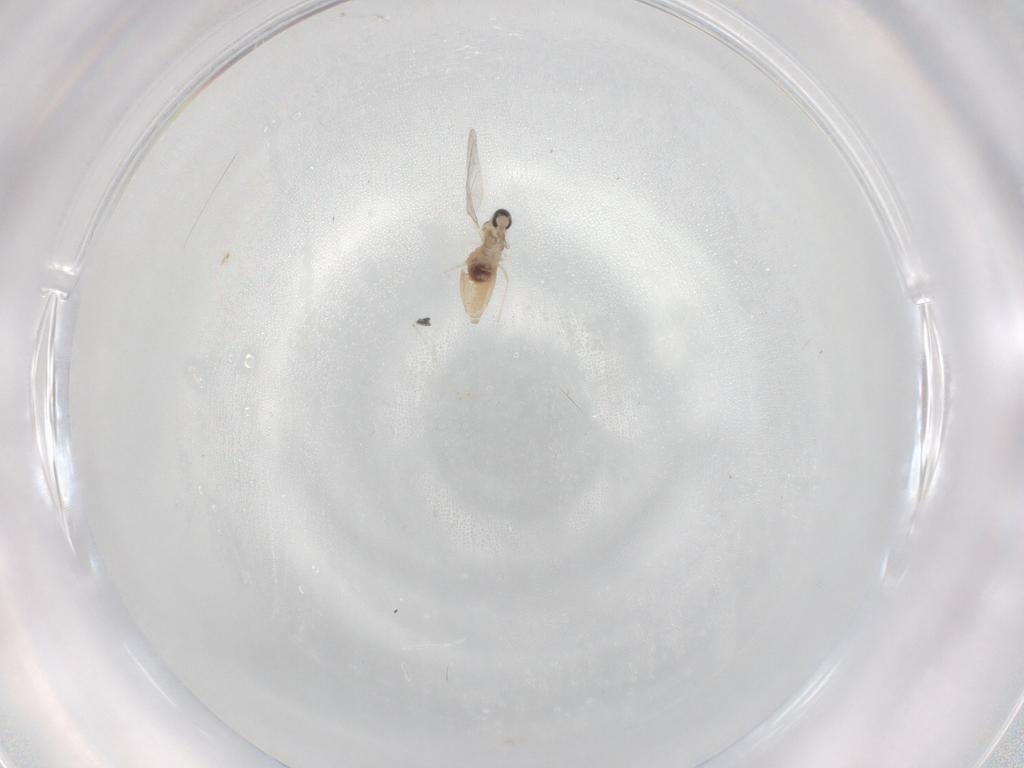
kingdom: Animalia
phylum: Arthropoda
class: Insecta
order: Diptera
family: Cecidomyiidae
